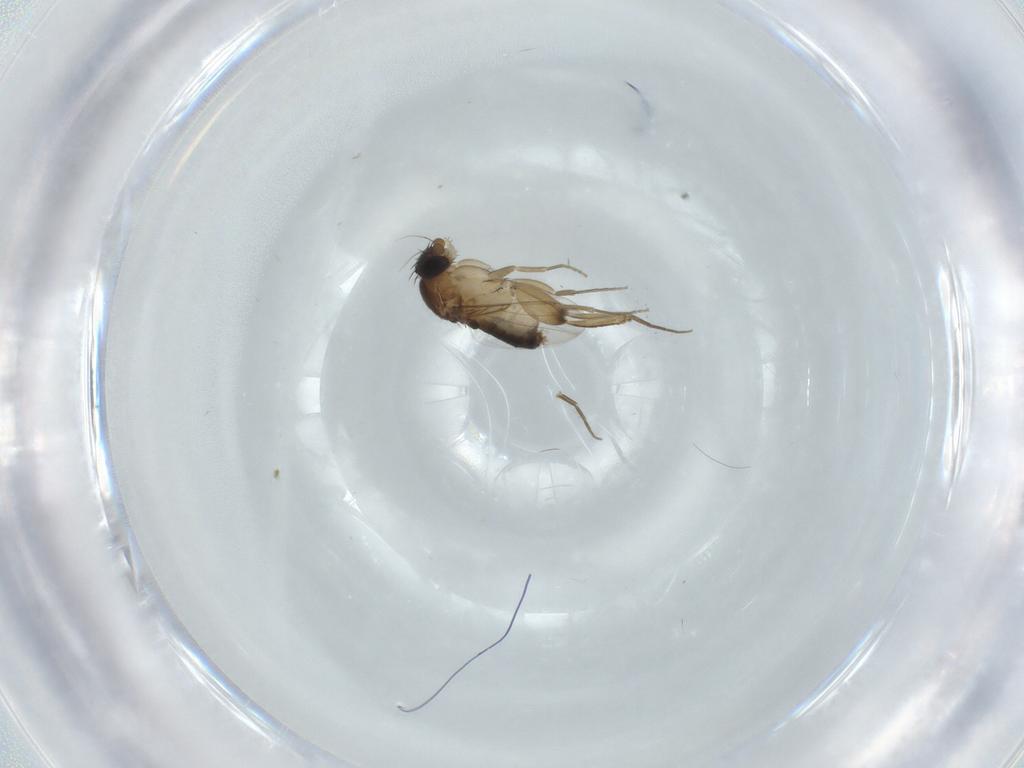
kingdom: Animalia
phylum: Arthropoda
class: Insecta
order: Diptera
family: Phoridae
